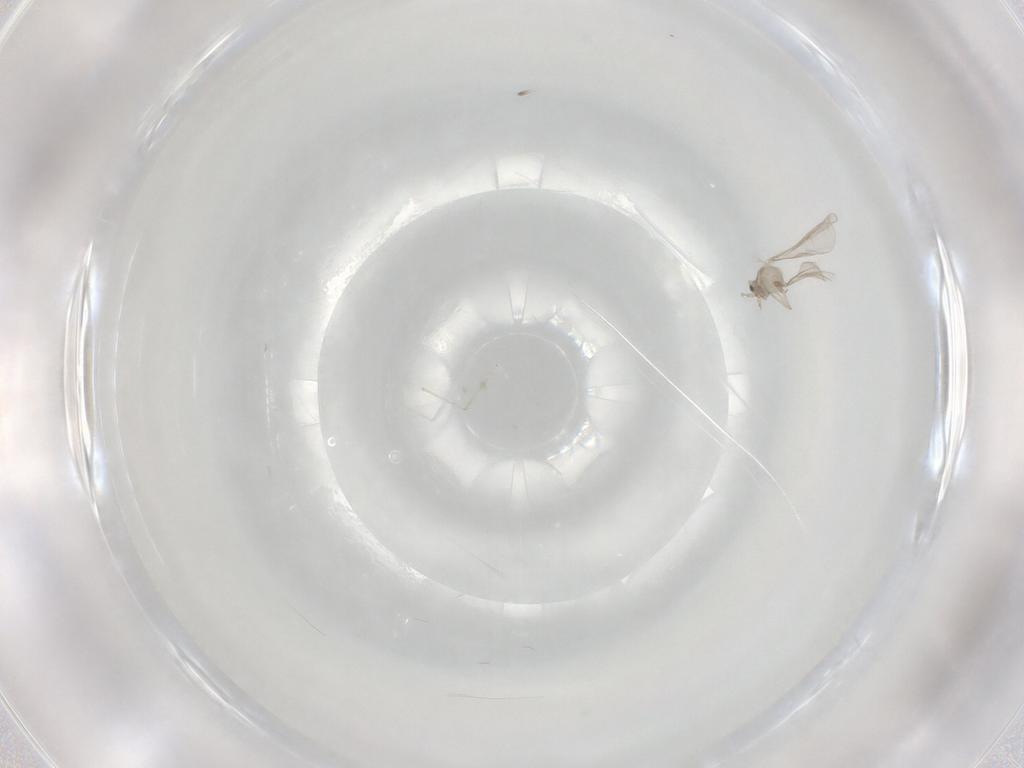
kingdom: Animalia
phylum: Arthropoda
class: Insecta
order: Diptera
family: Cecidomyiidae
